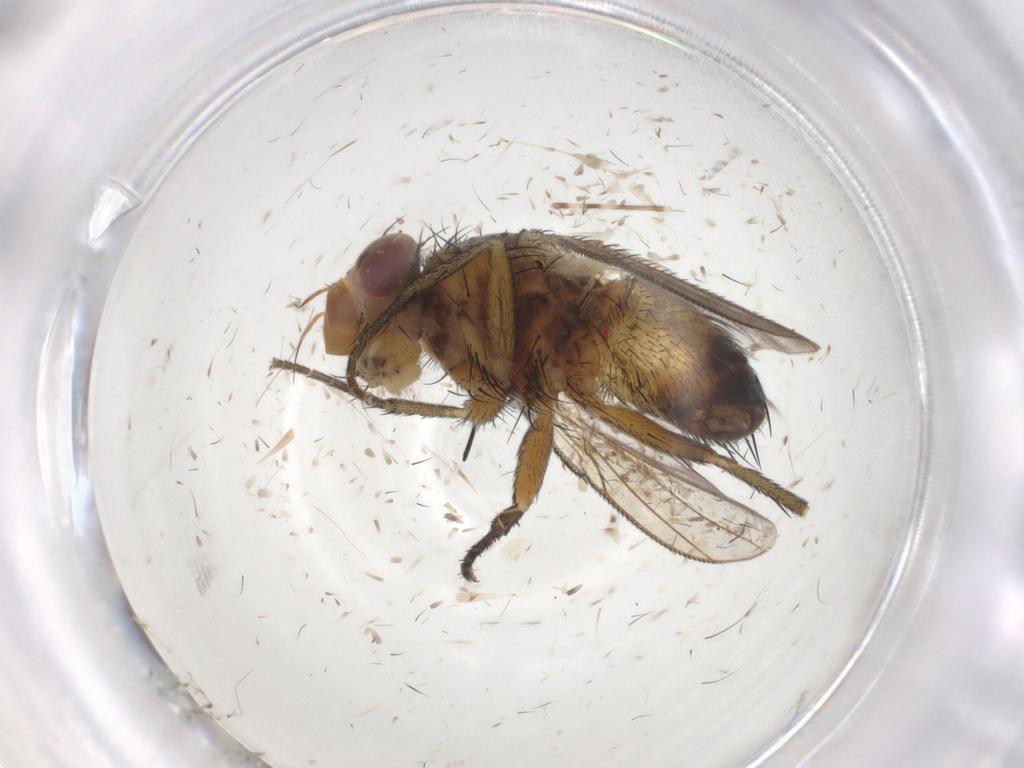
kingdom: Animalia
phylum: Arthropoda
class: Insecta
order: Diptera
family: Tachinidae
